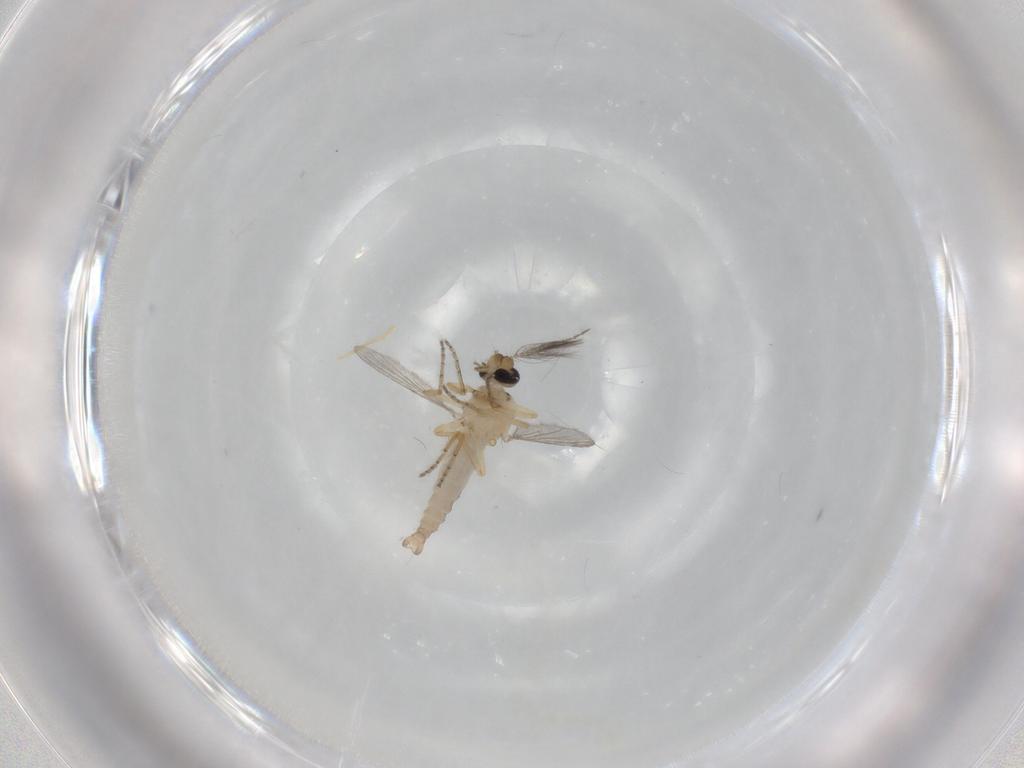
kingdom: Animalia
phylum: Arthropoda
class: Insecta
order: Diptera
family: Ceratopogonidae
